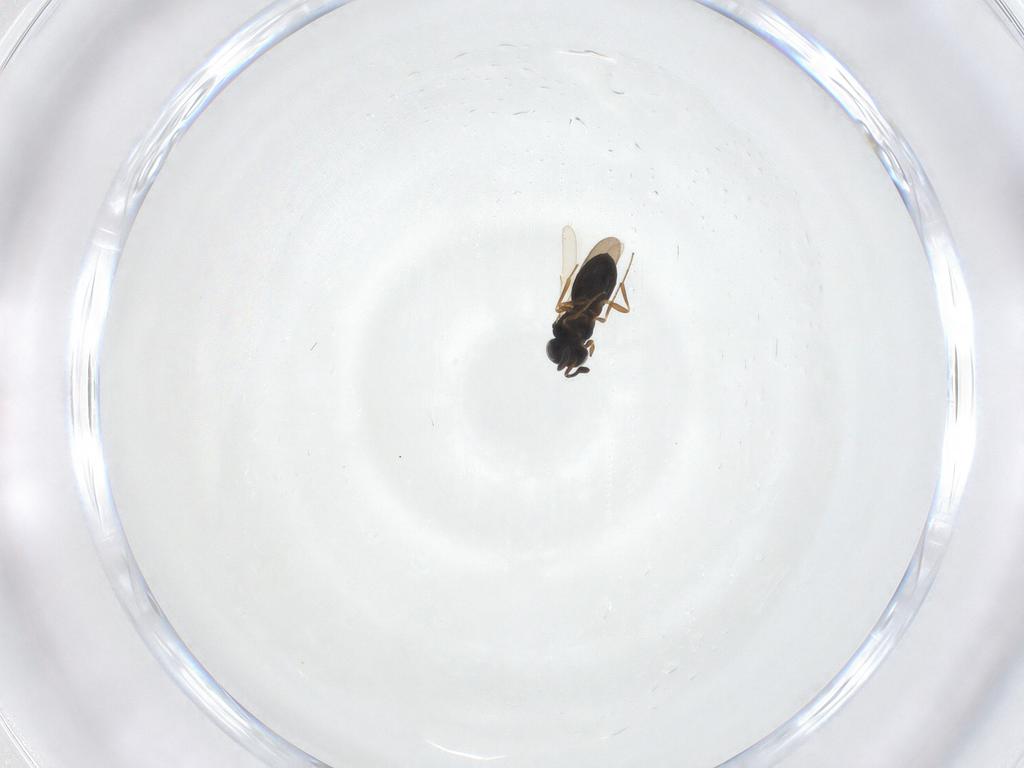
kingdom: Animalia
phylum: Arthropoda
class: Insecta
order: Hymenoptera
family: Scelionidae
